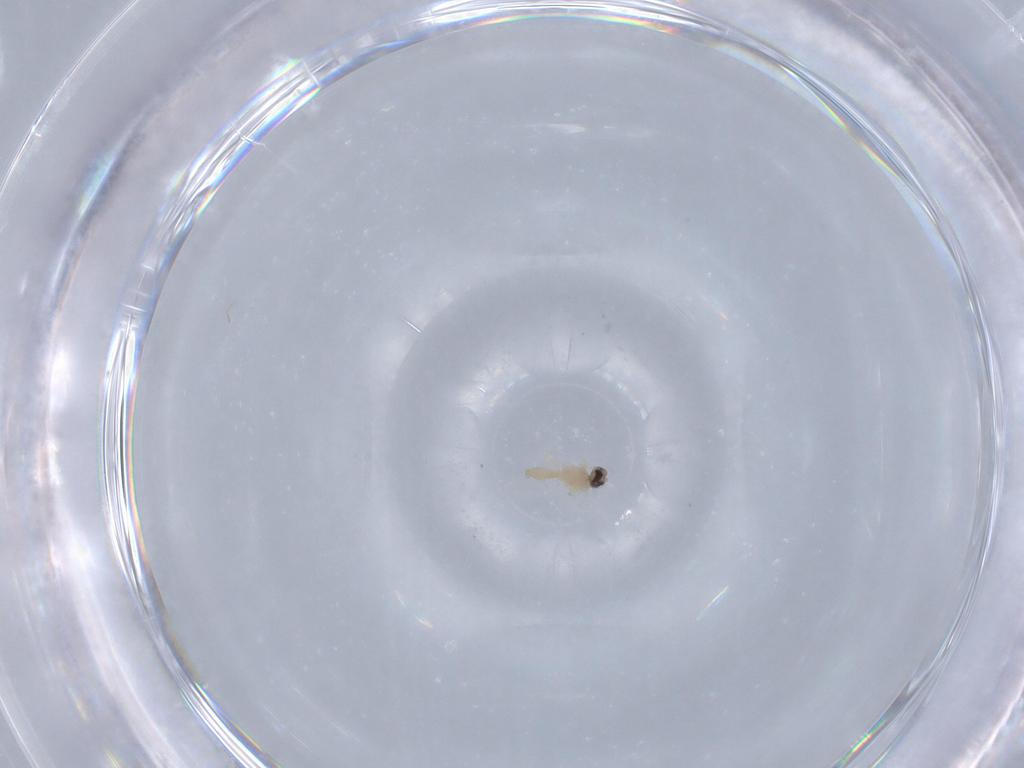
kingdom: Animalia
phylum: Arthropoda
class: Insecta
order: Diptera
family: Cecidomyiidae
